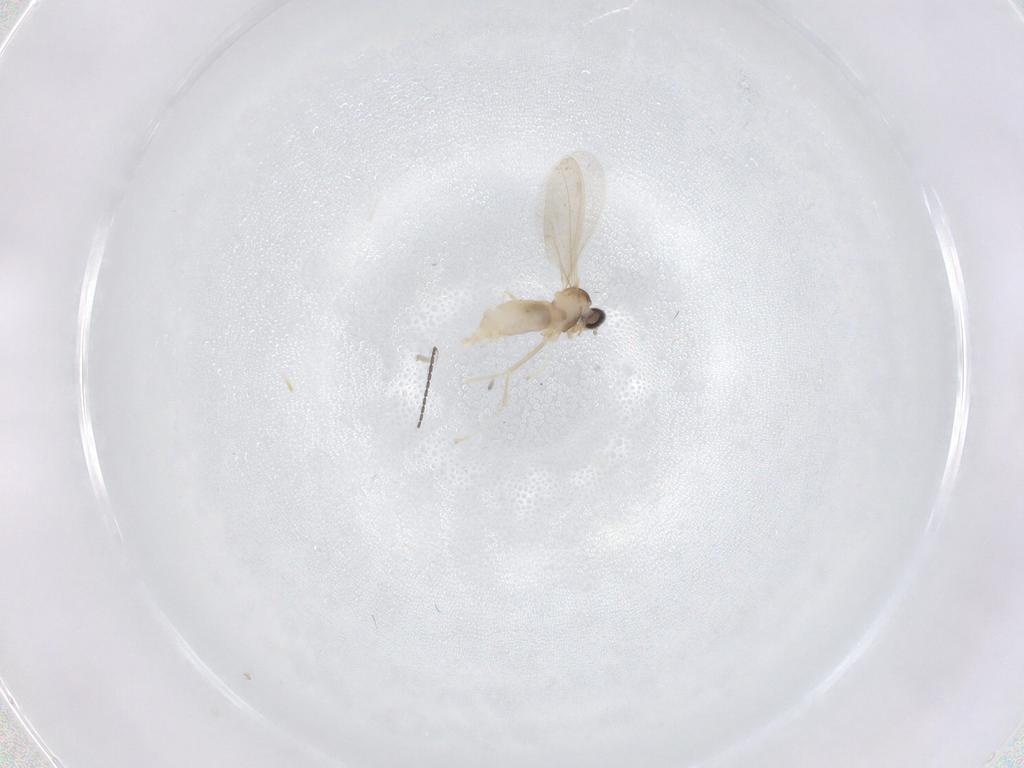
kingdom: Animalia
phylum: Arthropoda
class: Insecta
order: Diptera
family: Cecidomyiidae
